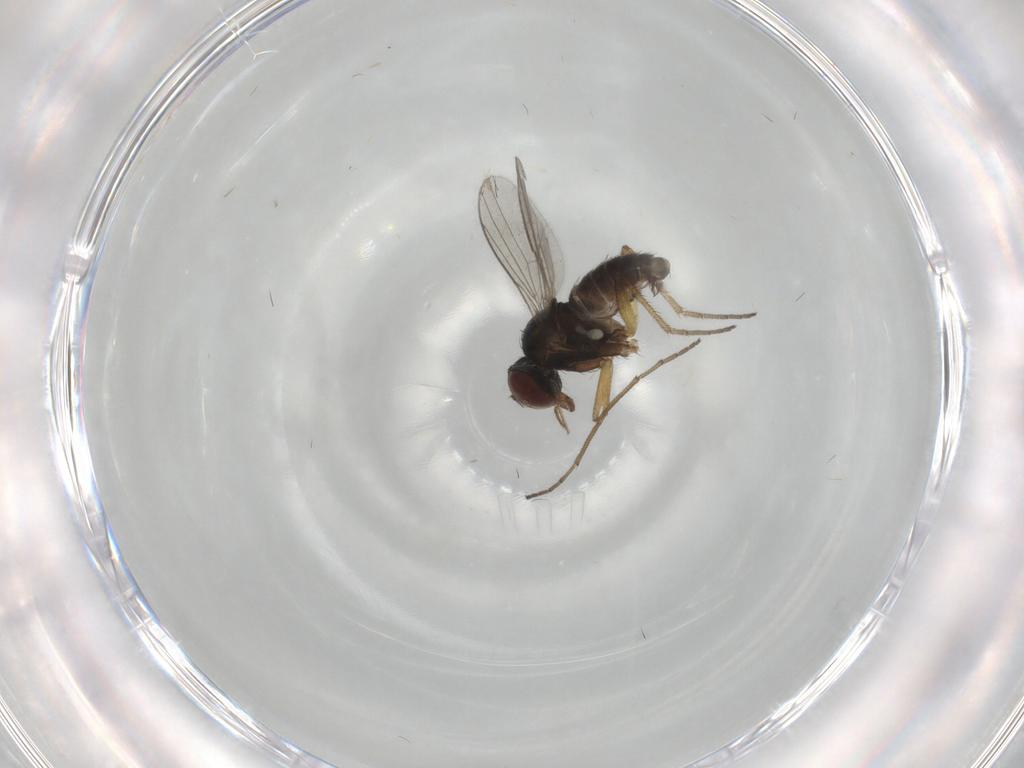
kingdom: Animalia
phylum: Arthropoda
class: Insecta
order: Diptera
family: Dolichopodidae
